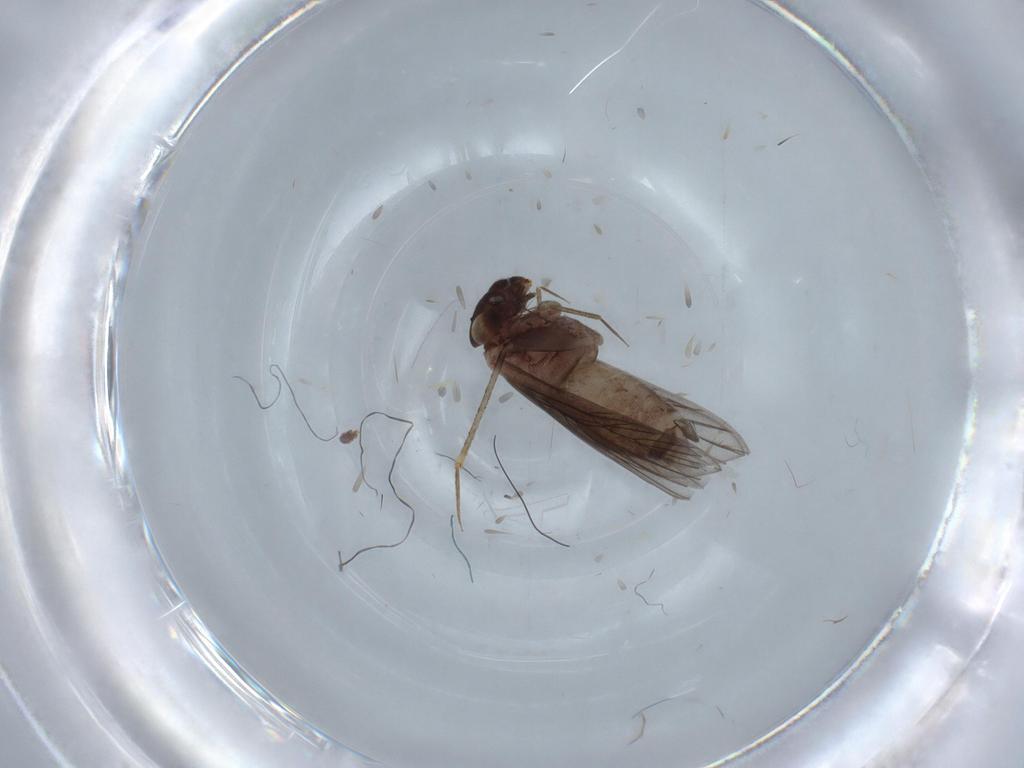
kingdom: Animalia
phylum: Arthropoda
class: Insecta
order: Psocodea
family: Lepidopsocidae
